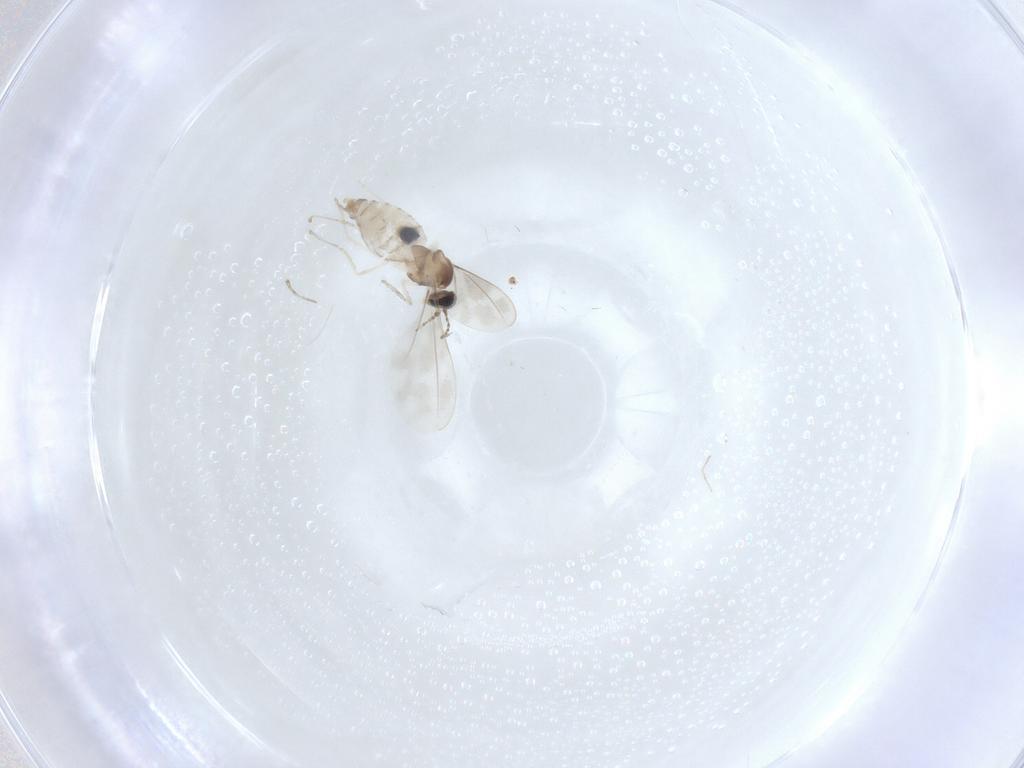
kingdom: Animalia
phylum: Arthropoda
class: Insecta
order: Diptera
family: Cecidomyiidae
